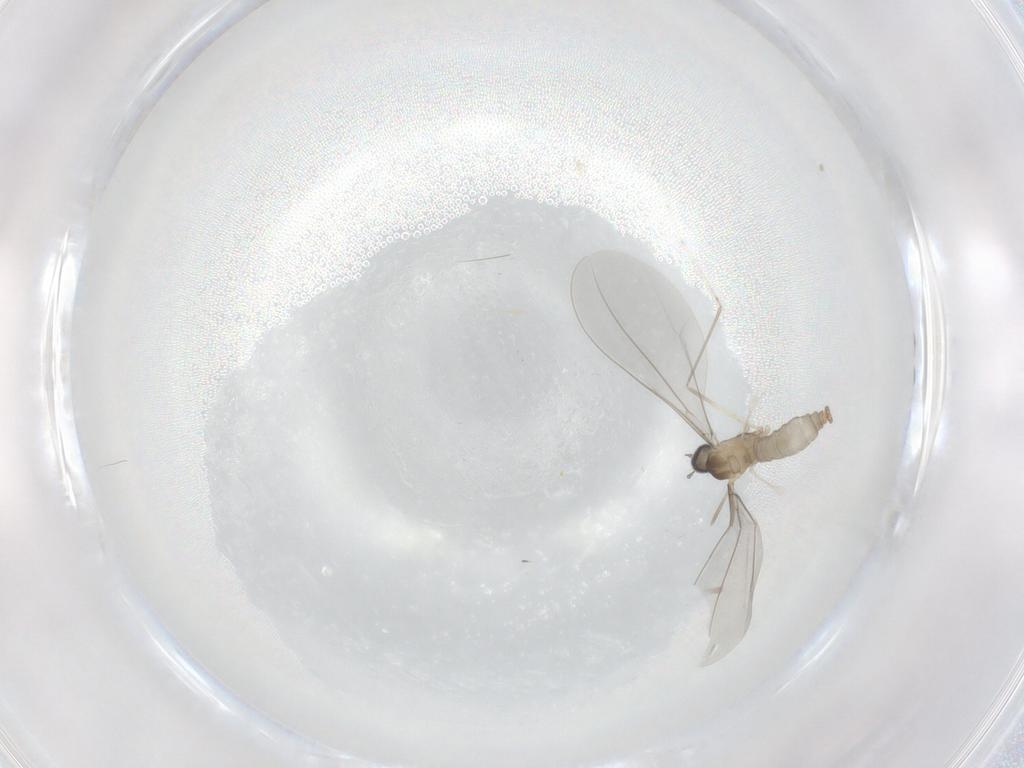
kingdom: Animalia
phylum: Arthropoda
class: Insecta
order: Diptera
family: Cecidomyiidae
